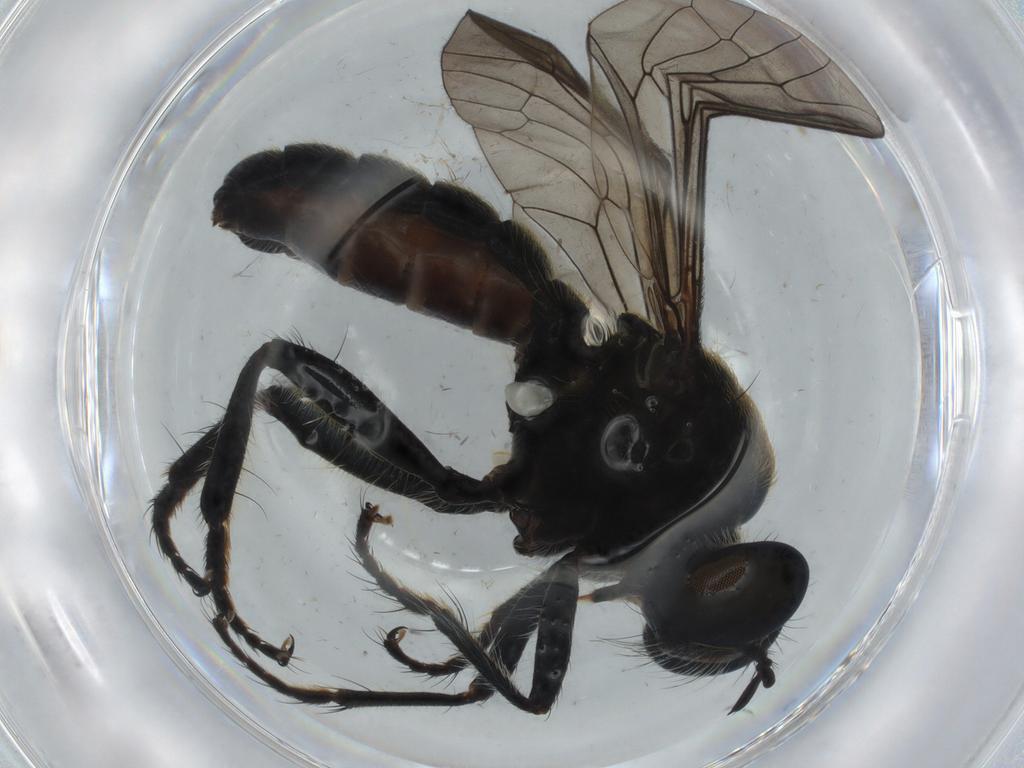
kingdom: Animalia
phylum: Arthropoda
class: Insecta
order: Diptera
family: Sciaridae
